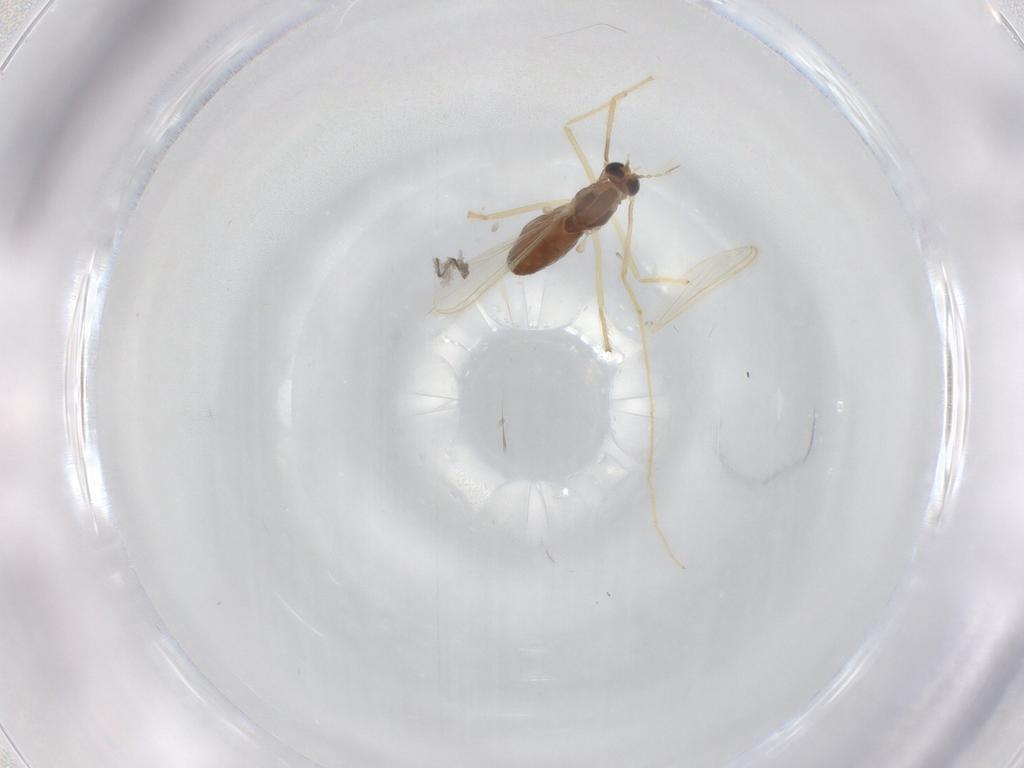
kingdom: Animalia
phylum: Arthropoda
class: Insecta
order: Diptera
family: Chironomidae
